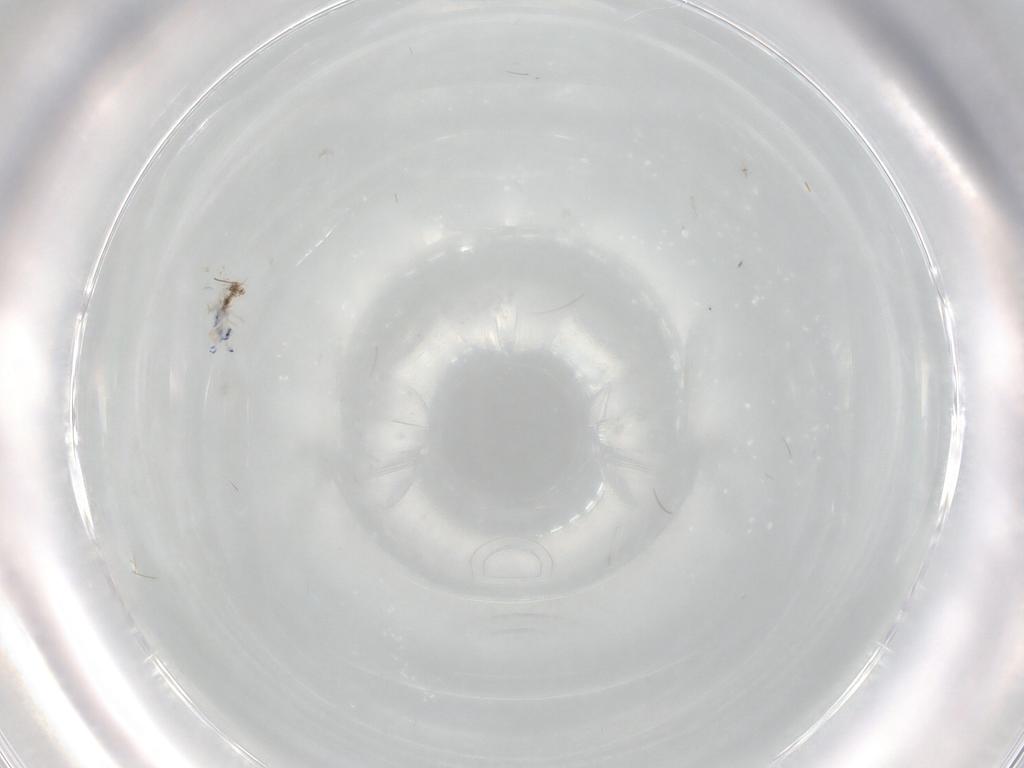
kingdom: Animalia
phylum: Arthropoda
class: Collembola
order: Entomobryomorpha
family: Entomobryidae
